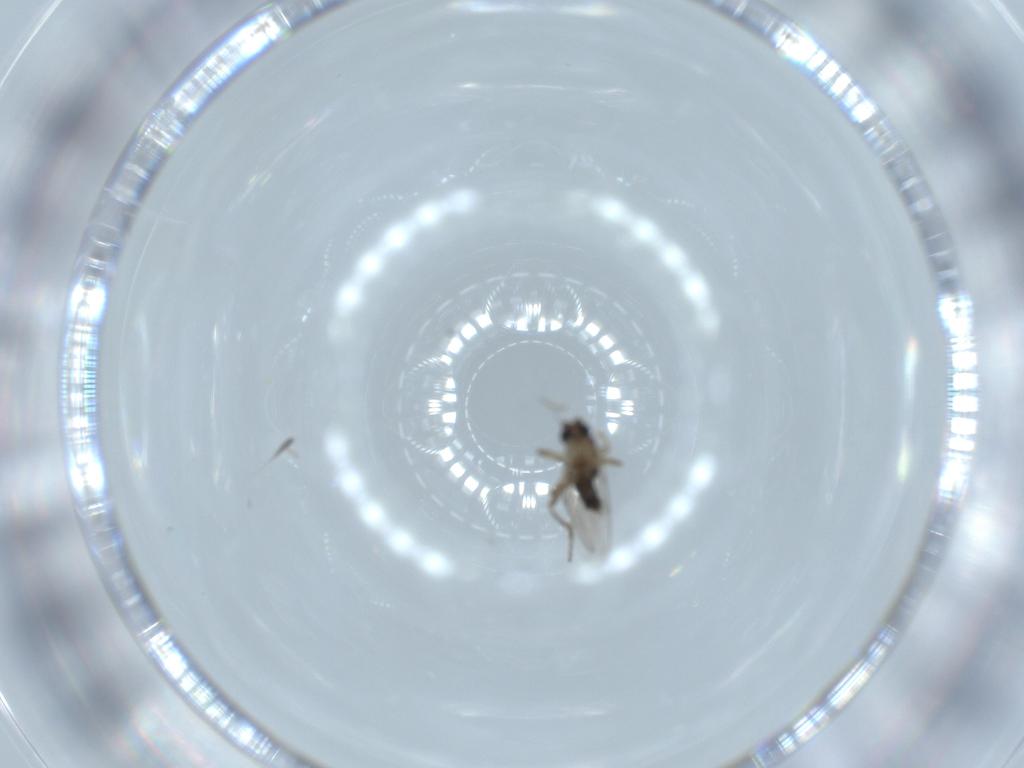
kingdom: Animalia
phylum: Arthropoda
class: Insecta
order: Diptera
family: Phoridae
